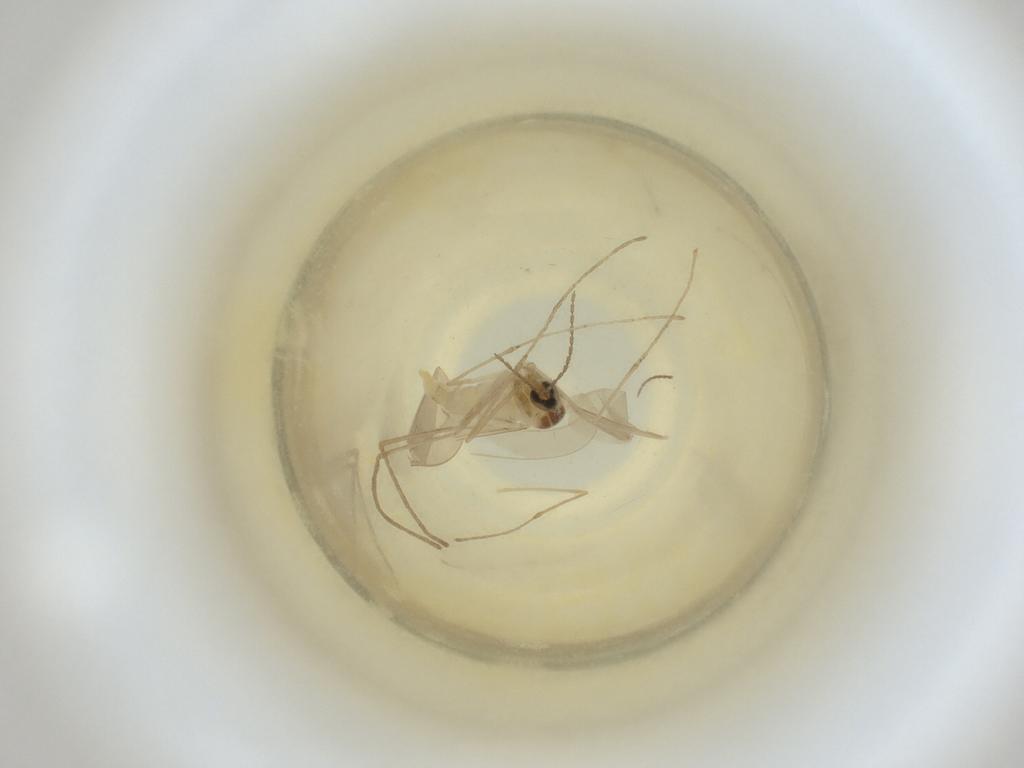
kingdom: Animalia
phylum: Arthropoda
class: Insecta
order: Diptera
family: Cecidomyiidae
